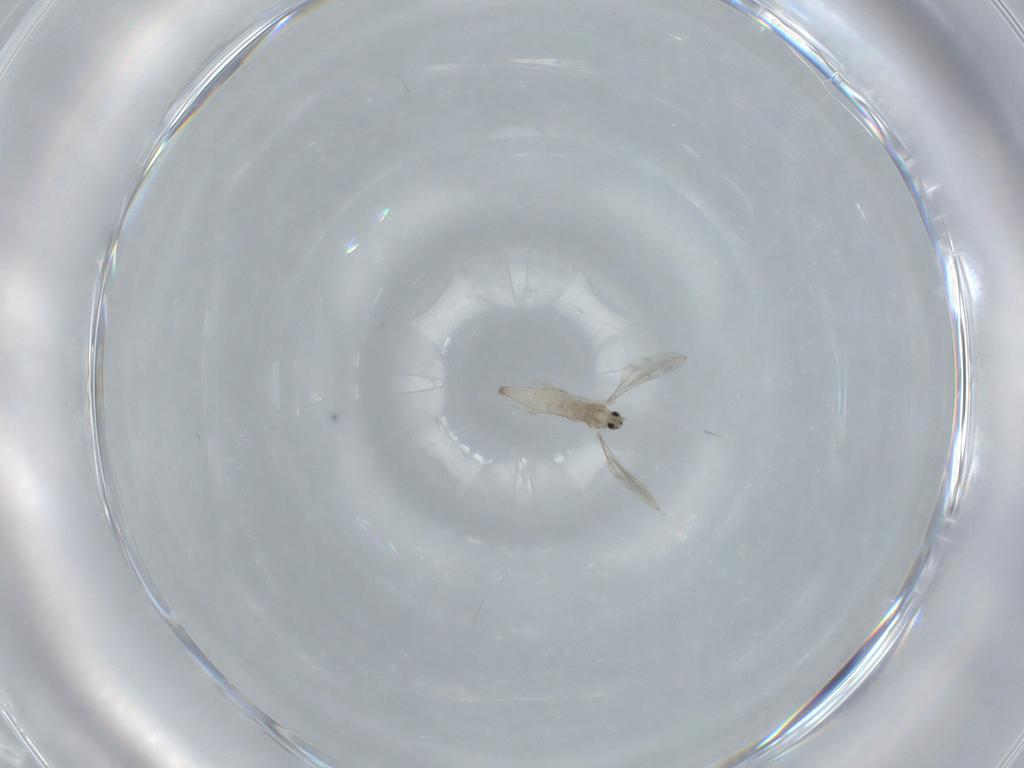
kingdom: Animalia
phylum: Arthropoda
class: Insecta
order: Diptera
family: Cecidomyiidae
